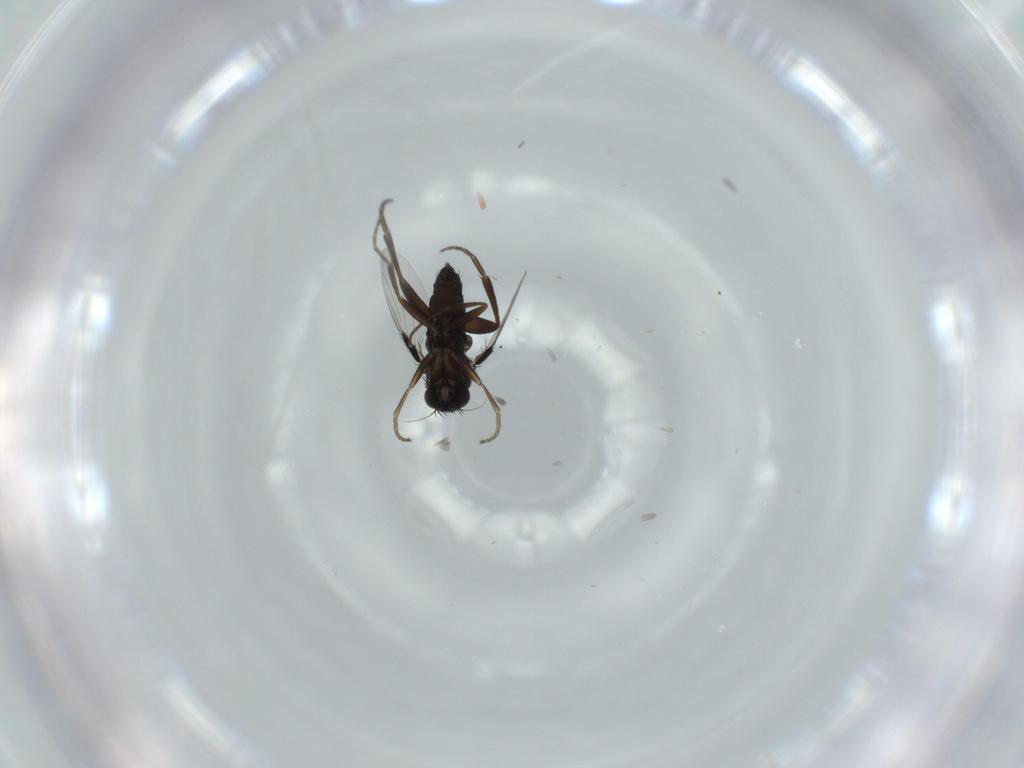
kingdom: Animalia
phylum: Arthropoda
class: Insecta
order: Diptera
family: Phoridae
